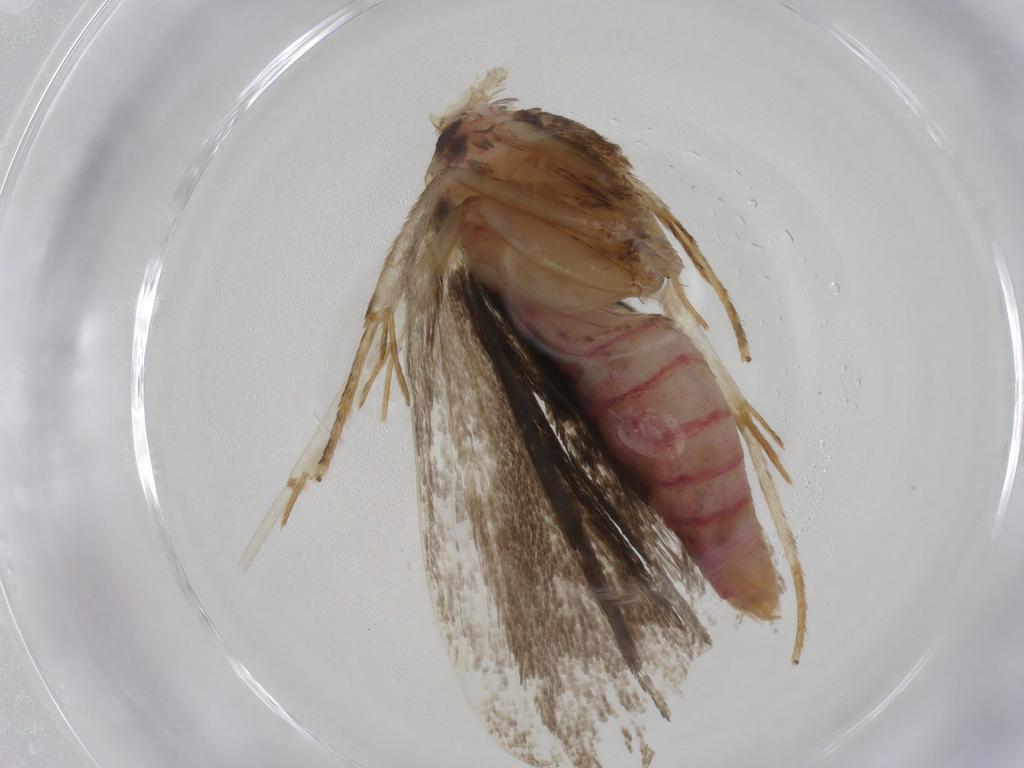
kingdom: Animalia
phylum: Arthropoda
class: Insecta
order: Lepidoptera
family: Autostichidae
